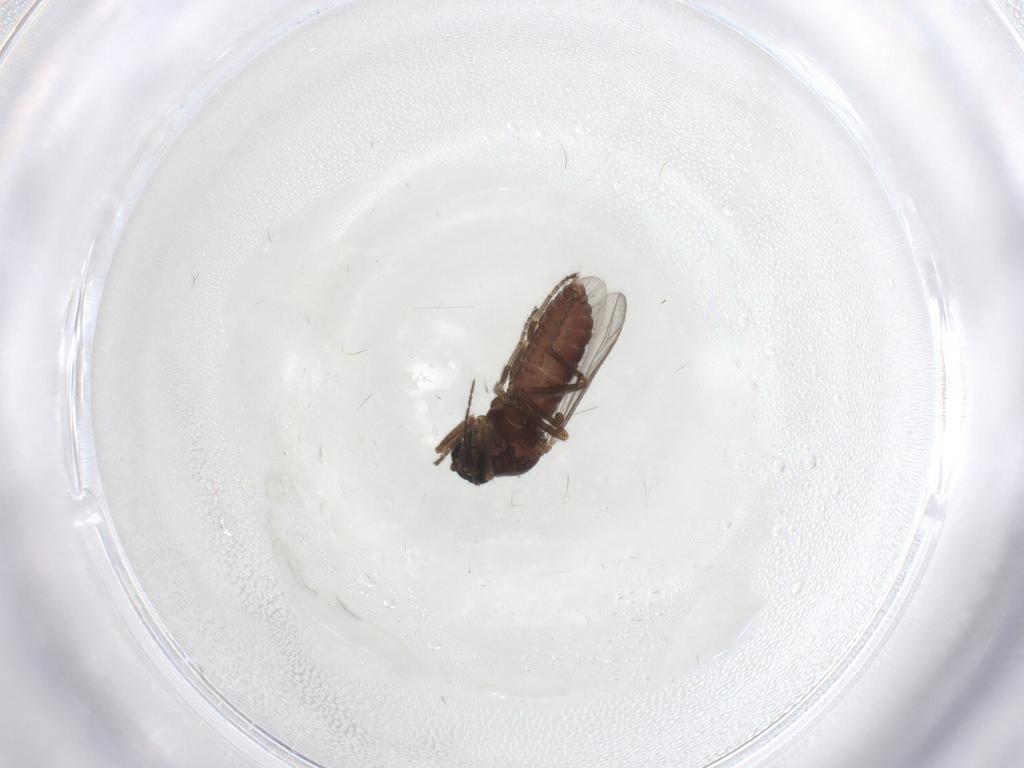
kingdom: Animalia
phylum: Arthropoda
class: Insecta
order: Diptera
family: Ceratopogonidae
